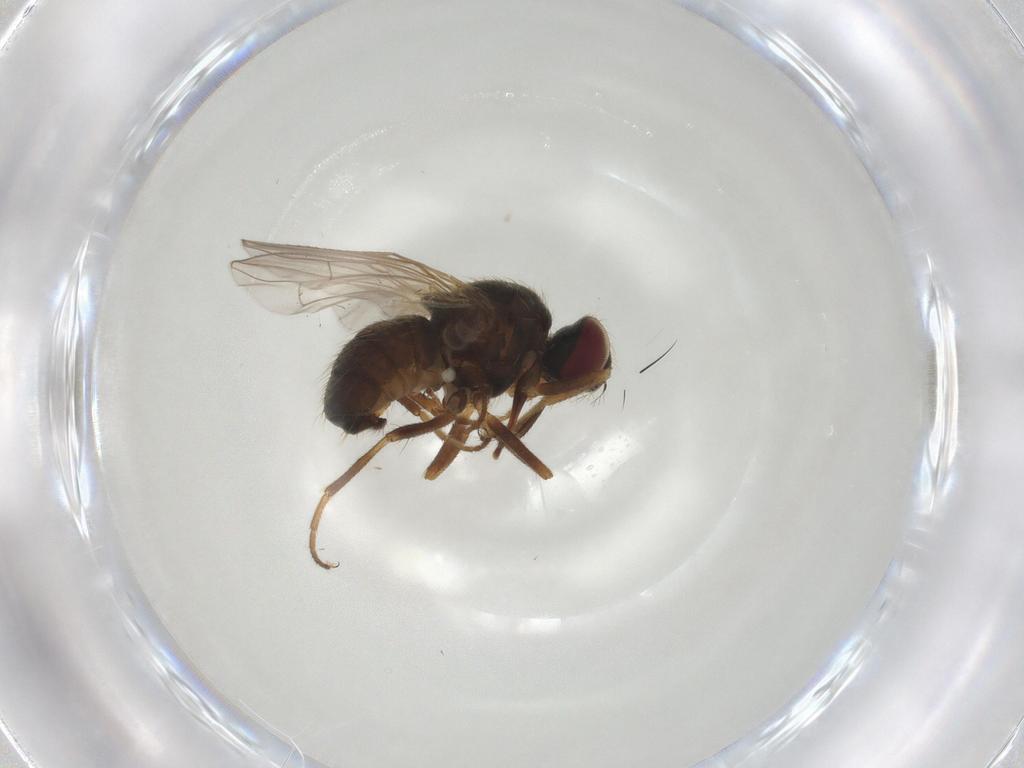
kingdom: Animalia
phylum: Arthropoda
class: Insecta
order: Diptera
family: Muscidae
